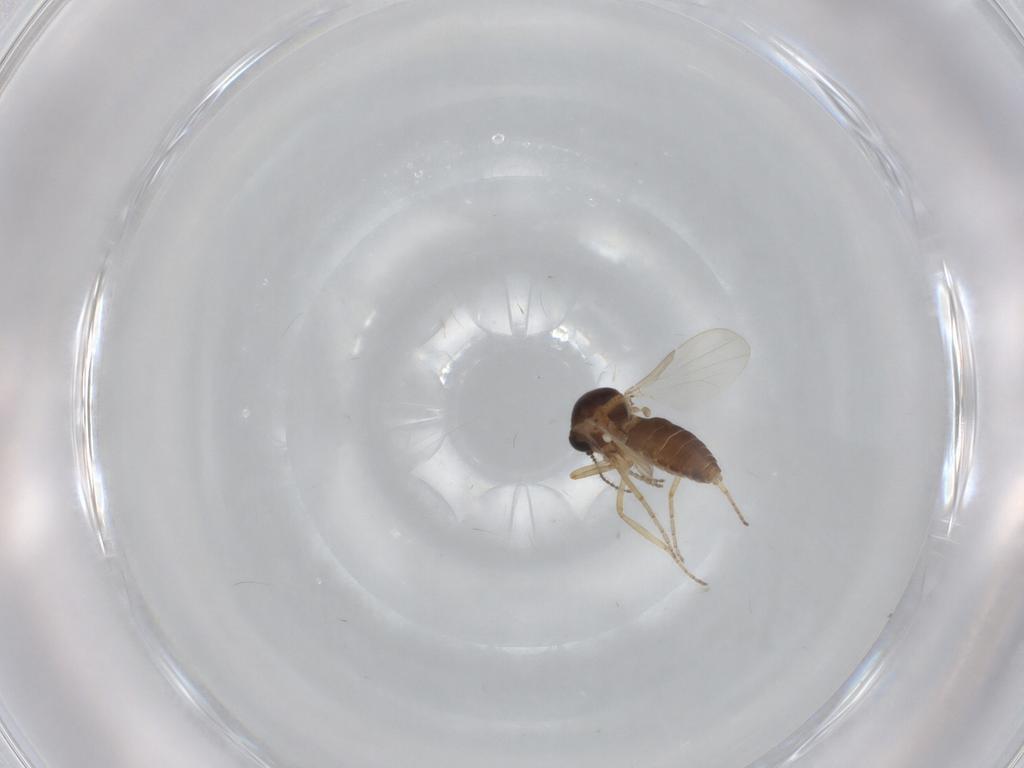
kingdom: Animalia
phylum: Arthropoda
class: Insecta
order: Diptera
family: Ceratopogonidae
